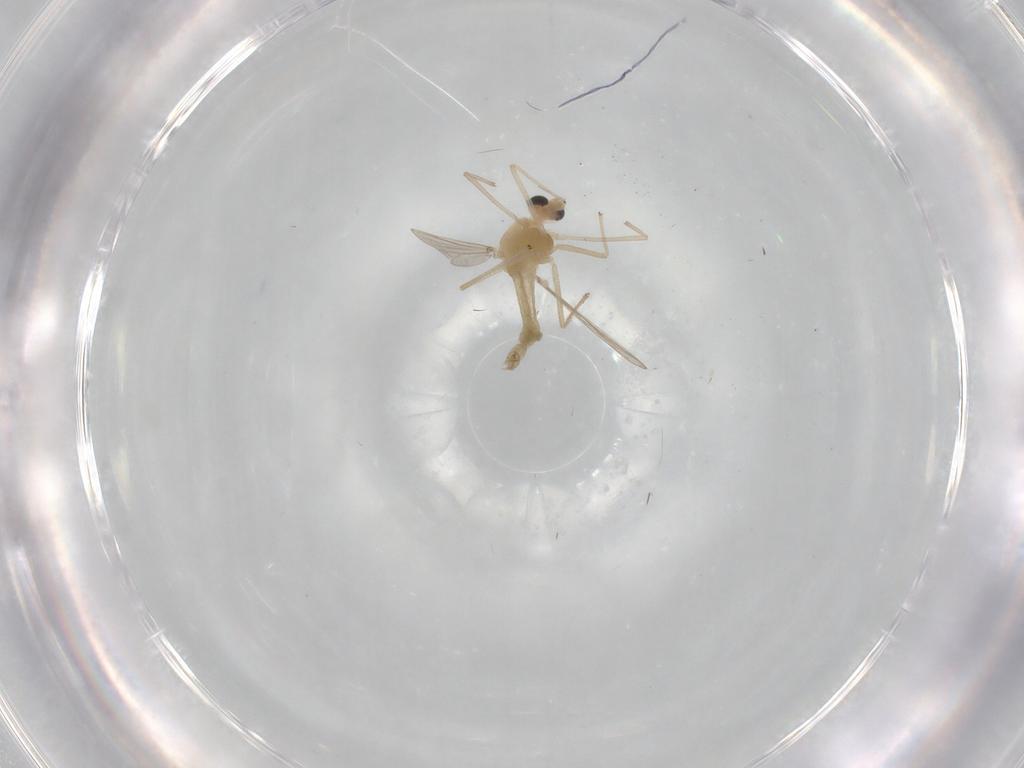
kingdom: Animalia
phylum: Arthropoda
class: Insecta
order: Diptera
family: Chironomidae
